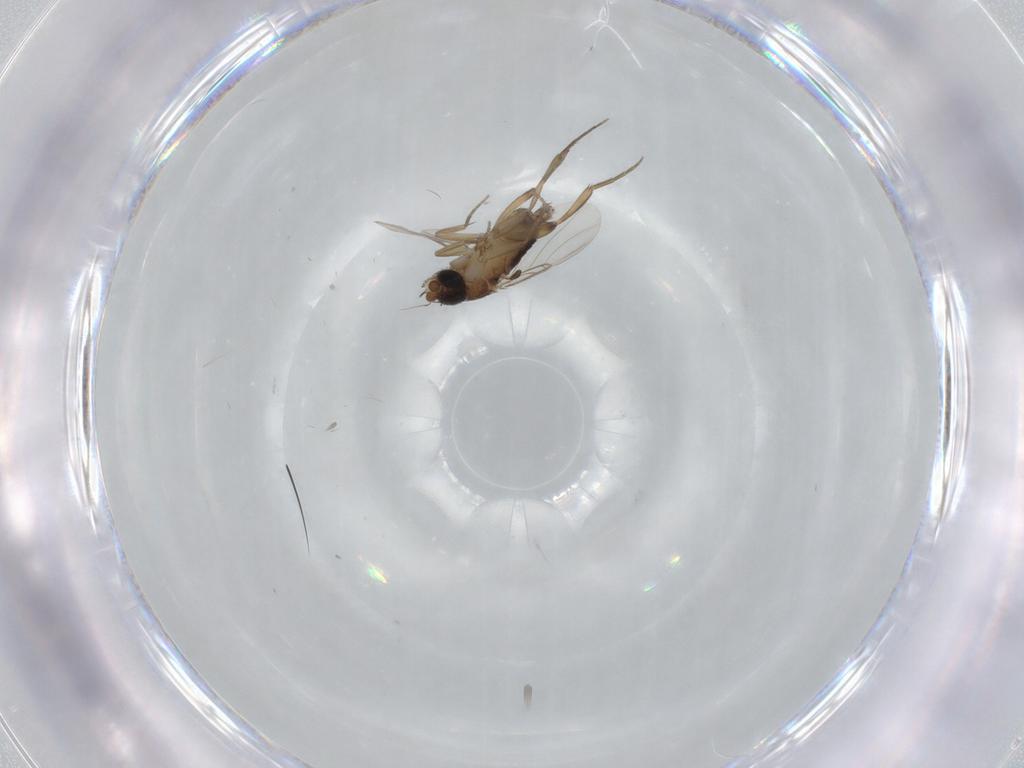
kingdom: Animalia
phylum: Arthropoda
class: Insecta
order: Diptera
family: Phoridae
